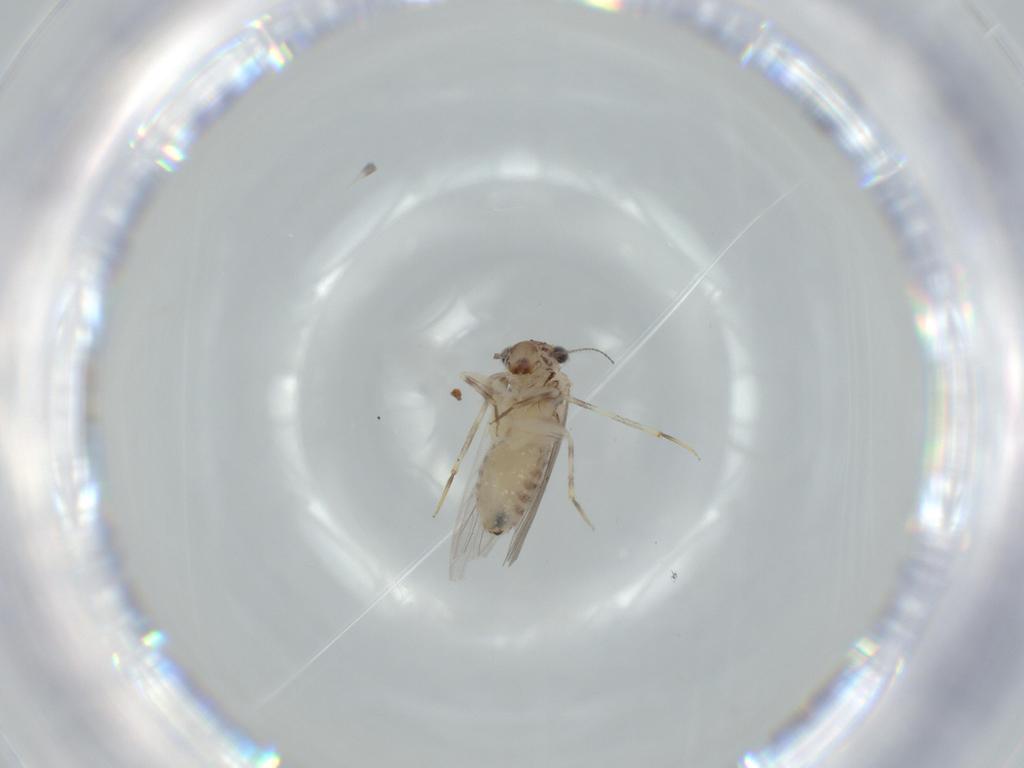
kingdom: Animalia
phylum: Arthropoda
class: Insecta
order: Psocodea
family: Lepidopsocidae
